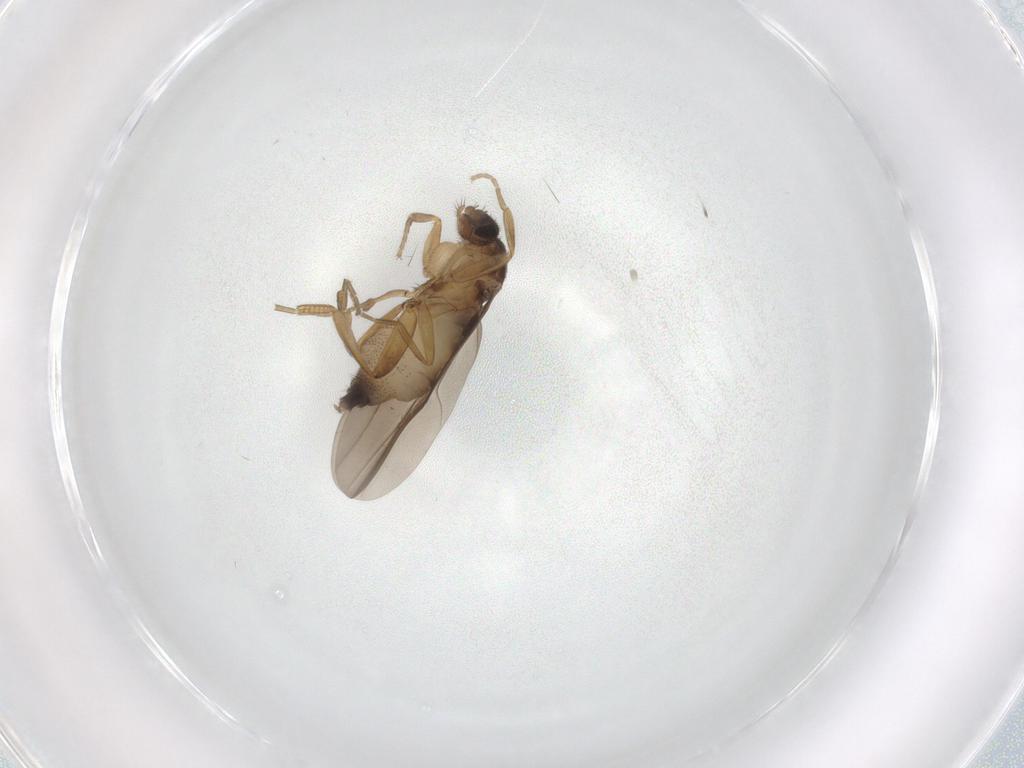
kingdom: Animalia
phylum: Arthropoda
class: Insecta
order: Diptera
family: Phoridae
